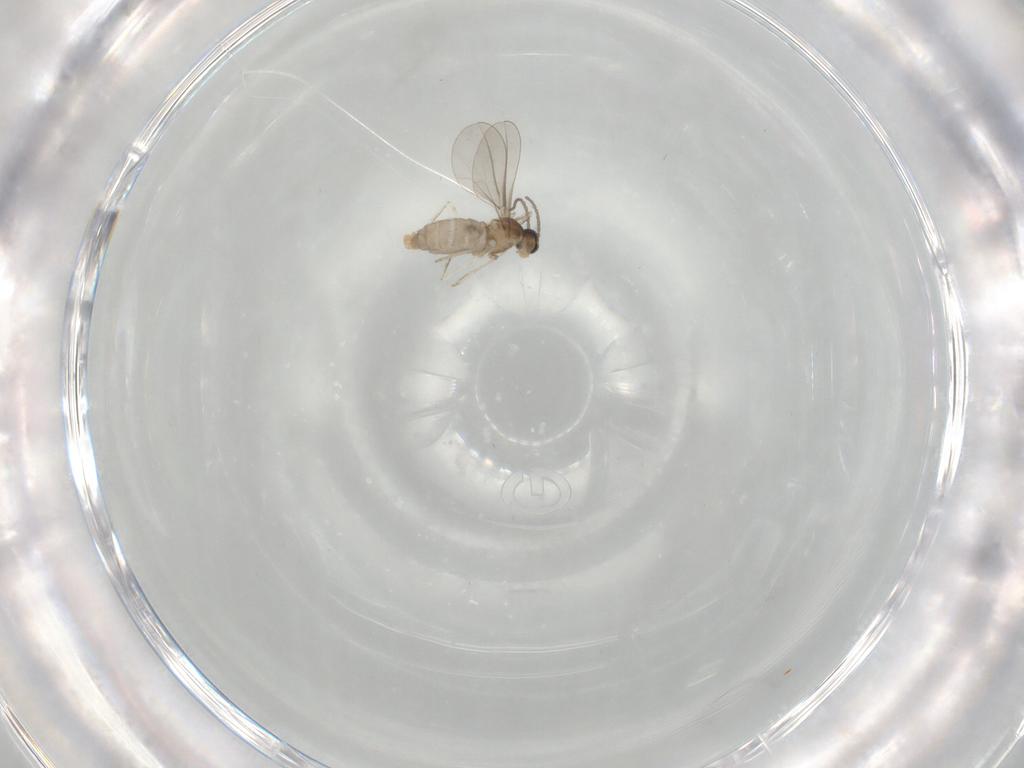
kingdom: Animalia
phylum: Arthropoda
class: Insecta
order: Diptera
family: Cecidomyiidae
